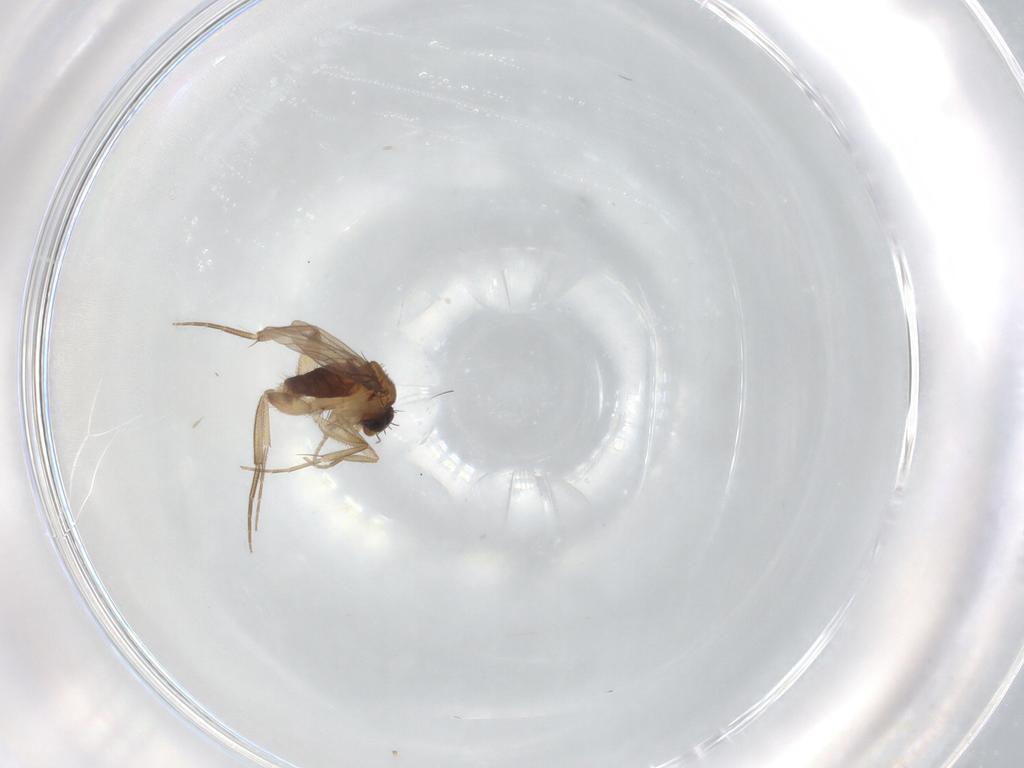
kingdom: Animalia
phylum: Arthropoda
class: Insecta
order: Diptera
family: Phoridae
